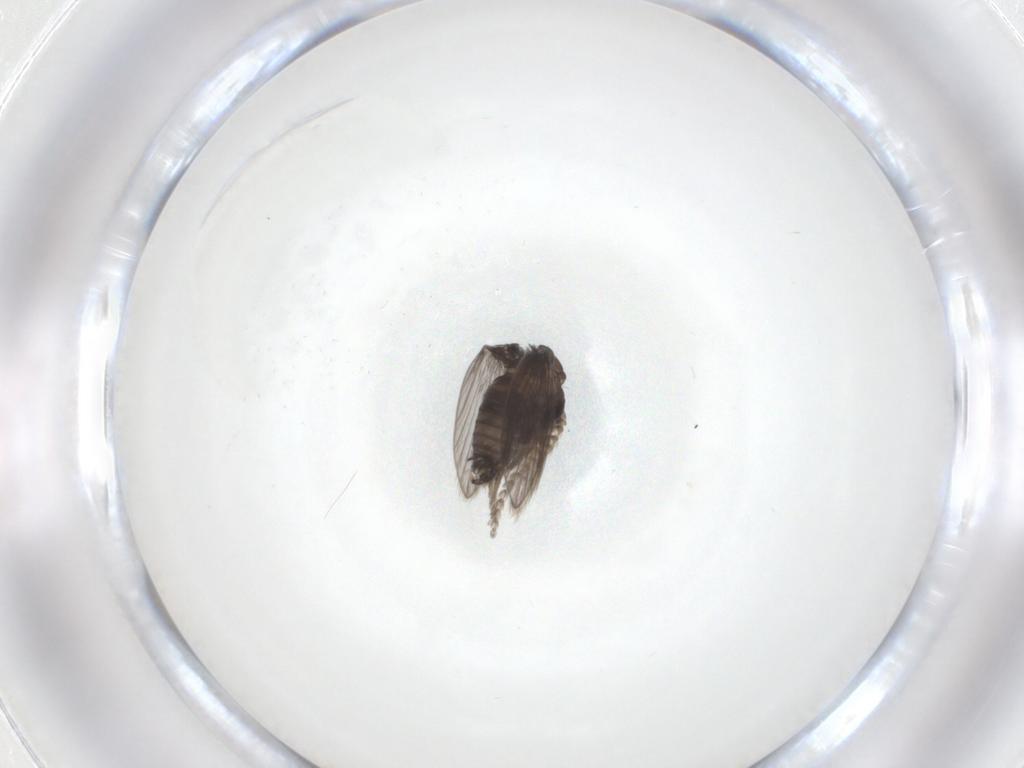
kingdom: Animalia
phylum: Arthropoda
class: Insecta
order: Diptera
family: Psychodidae
